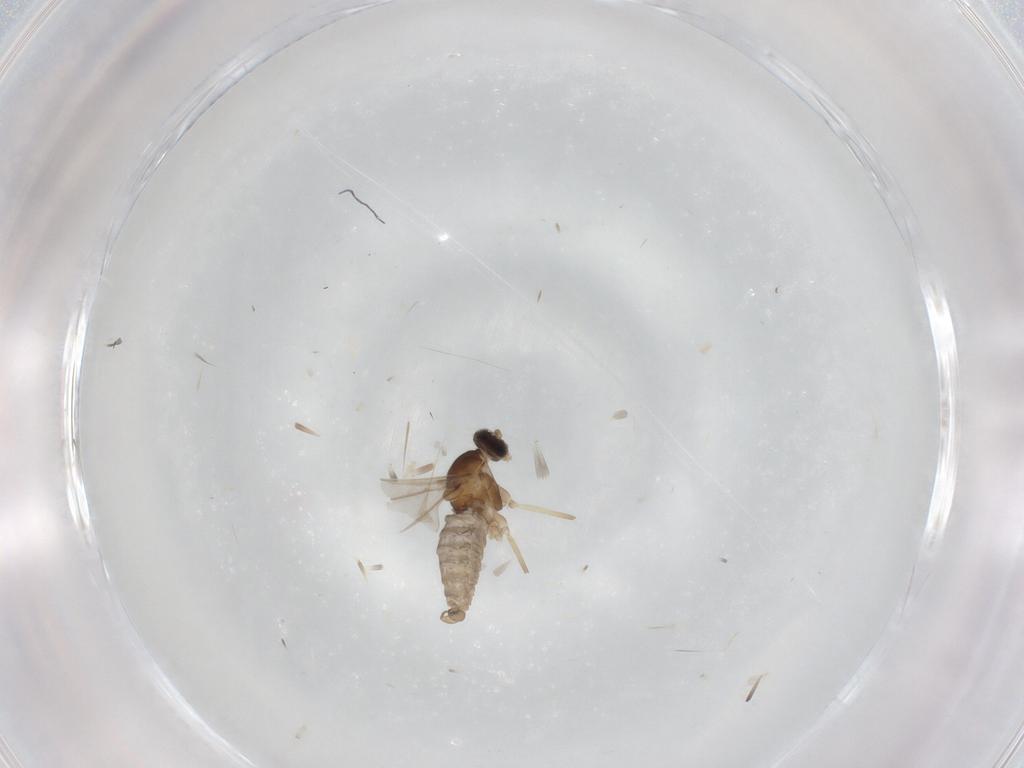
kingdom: Animalia
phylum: Arthropoda
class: Insecta
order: Diptera
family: Cecidomyiidae
